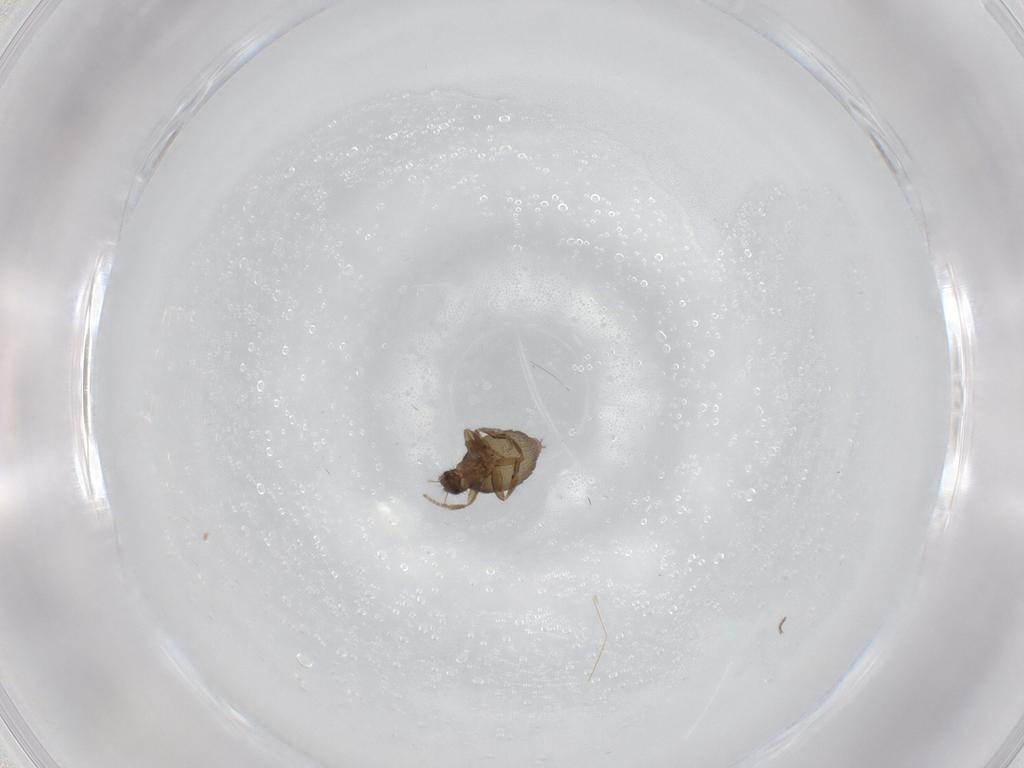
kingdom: Animalia
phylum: Arthropoda
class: Insecta
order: Diptera
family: Phoridae
